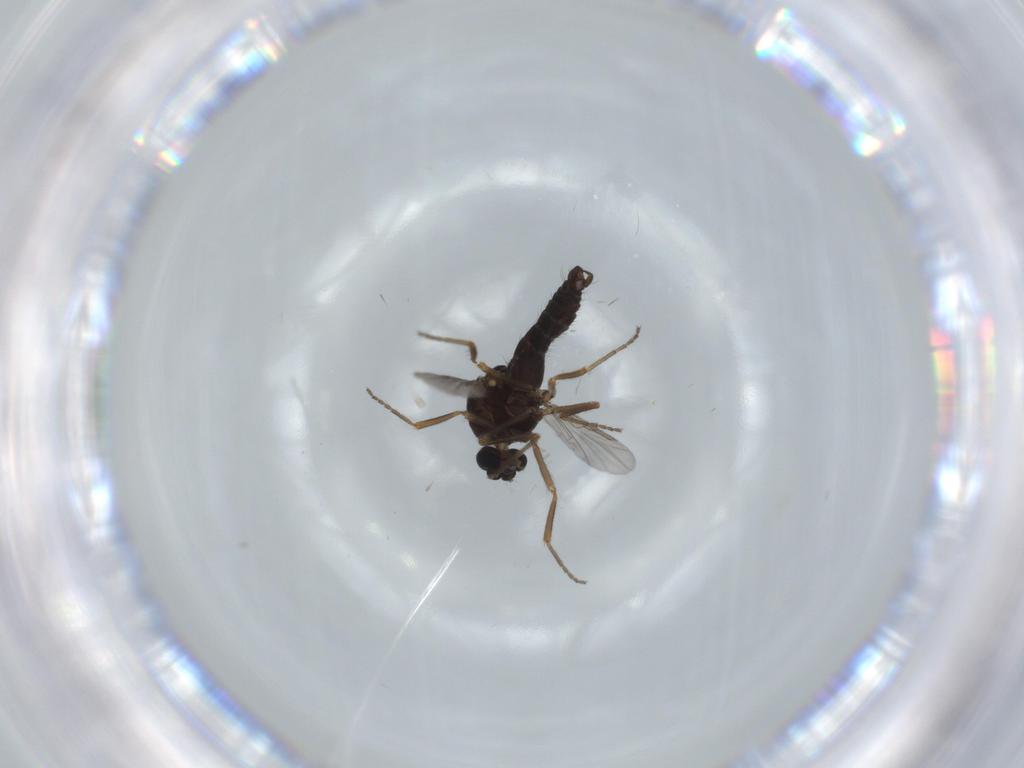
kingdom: Animalia
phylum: Arthropoda
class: Insecta
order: Diptera
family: Ceratopogonidae
